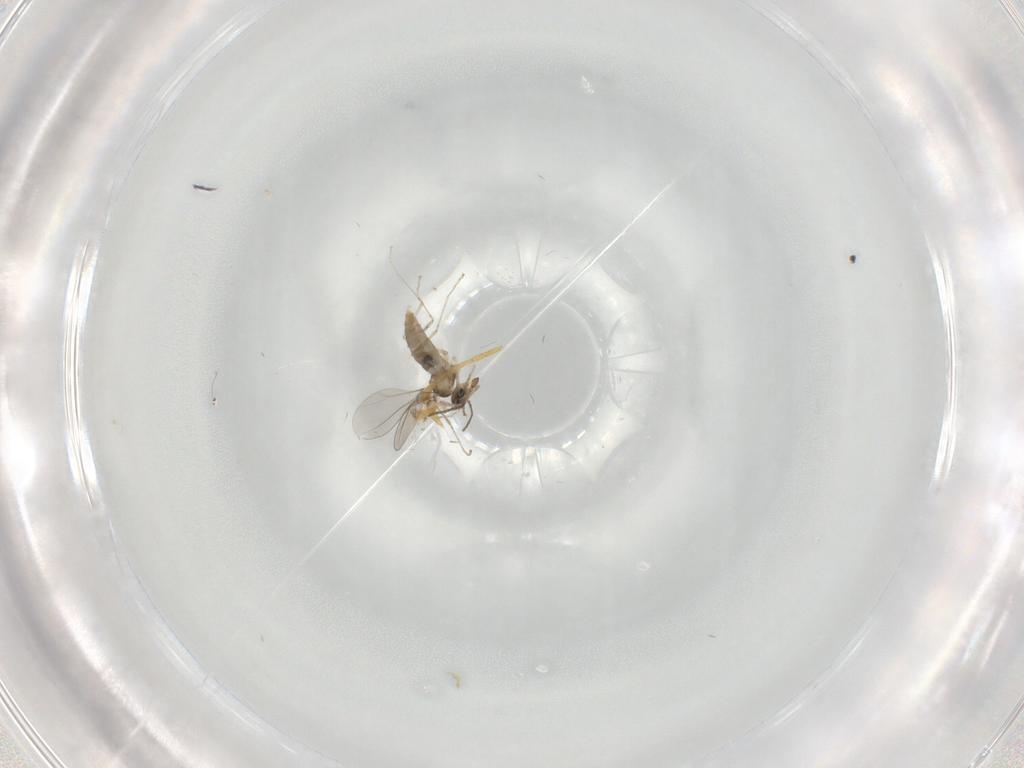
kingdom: Animalia
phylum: Arthropoda
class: Insecta
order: Diptera
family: Sphaeroceridae
